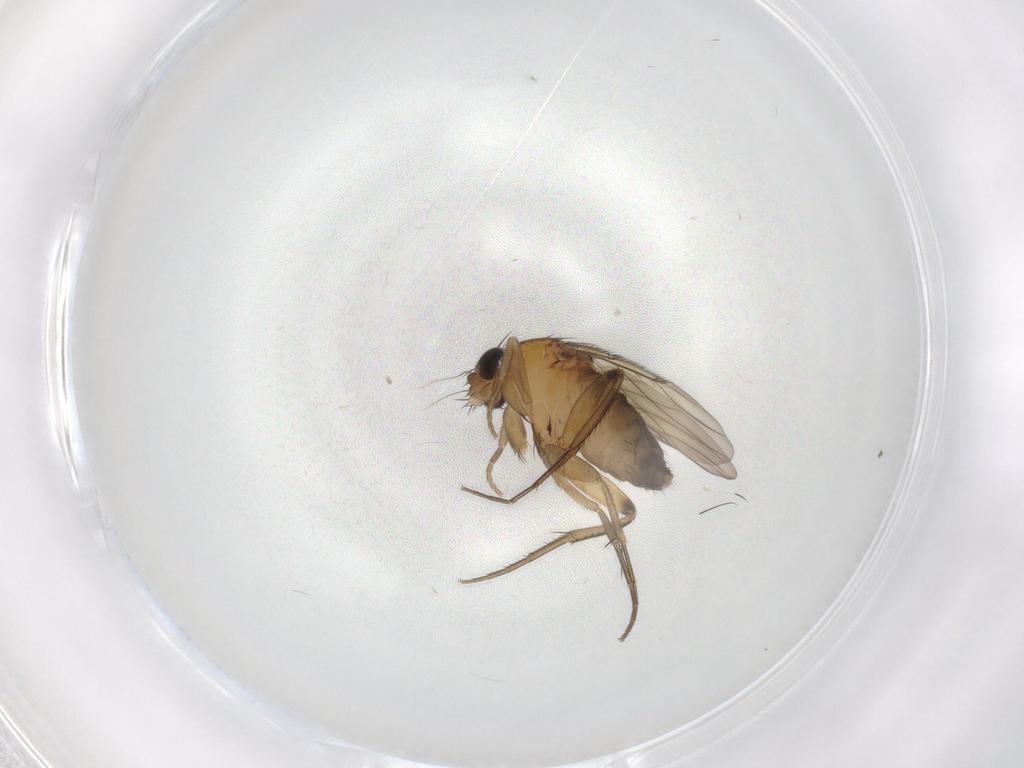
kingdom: Animalia
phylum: Arthropoda
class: Insecta
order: Diptera
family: Phoridae
